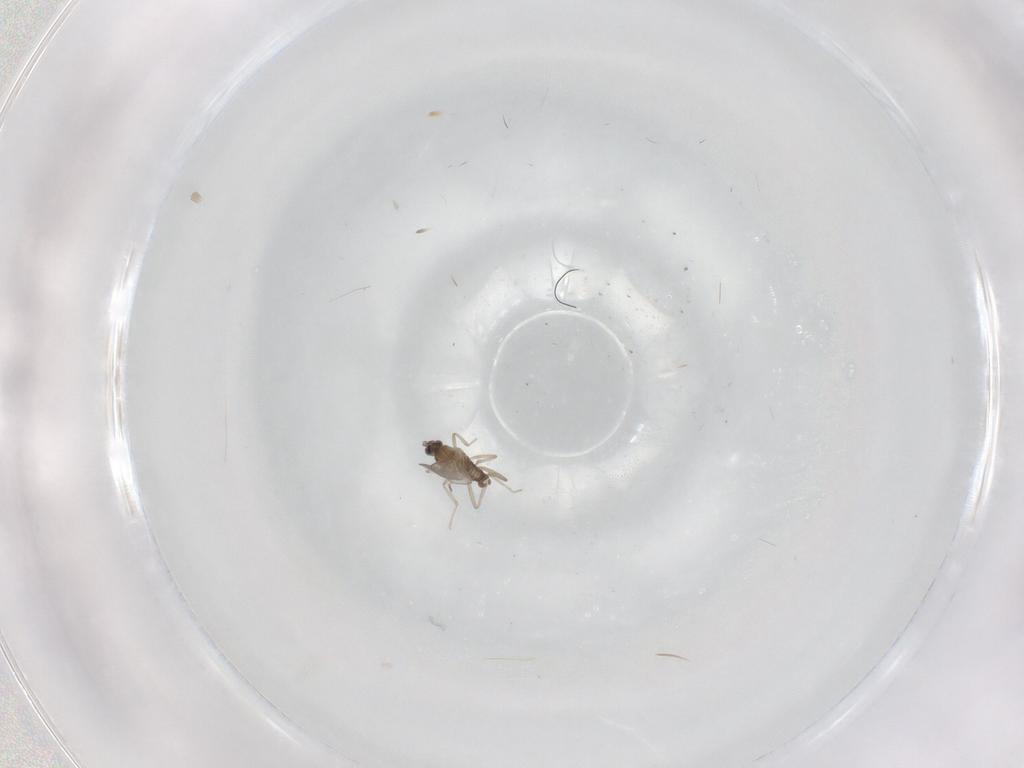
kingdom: Animalia
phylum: Arthropoda
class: Insecta
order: Diptera
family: Cecidomyiidae
